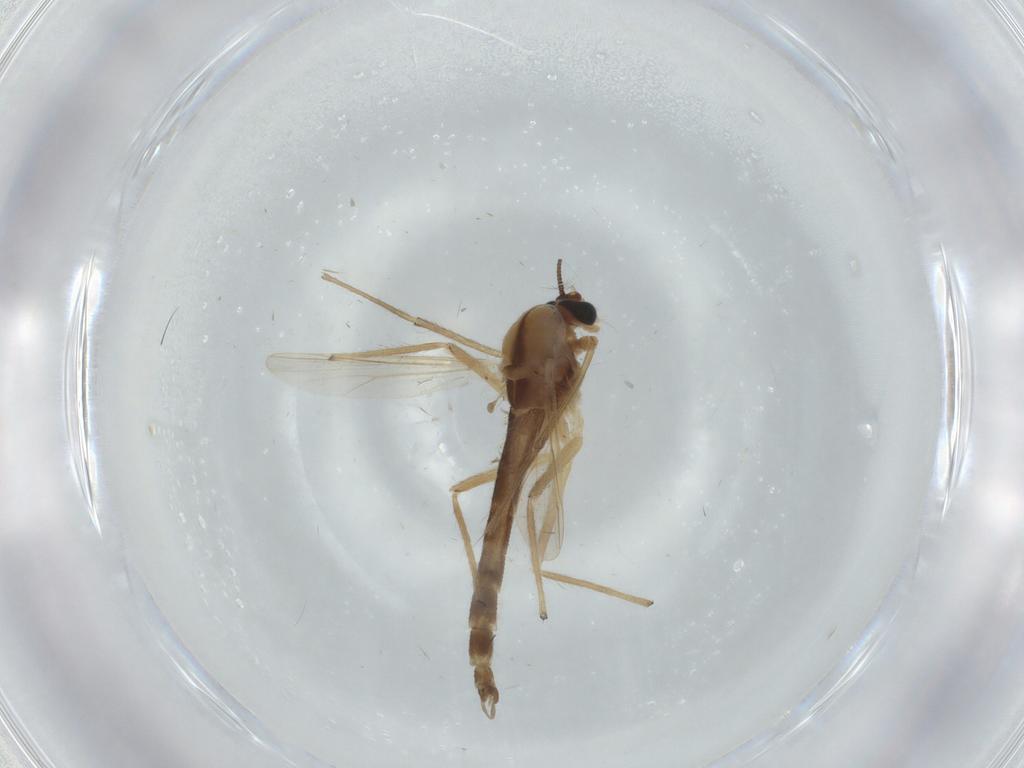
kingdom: Animalia
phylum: Arthropoda
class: Insecta
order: Diptera
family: Chironomidae
